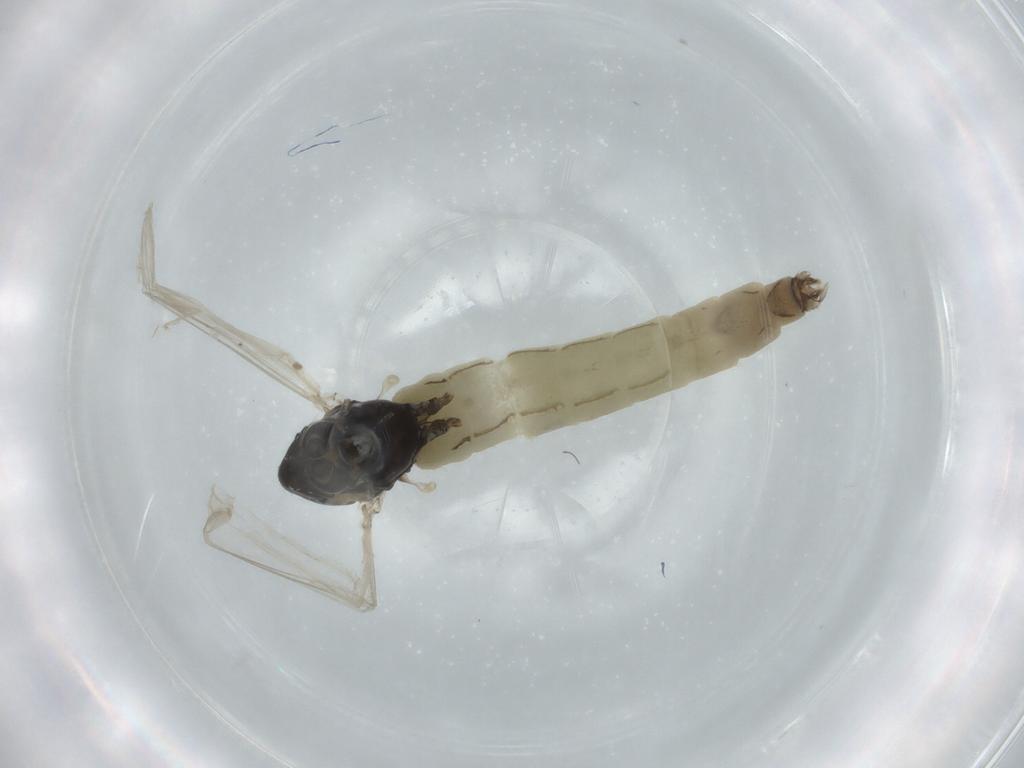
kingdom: Animalia
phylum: Arthropoda
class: Insecta
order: Diptera
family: Chironomidae
